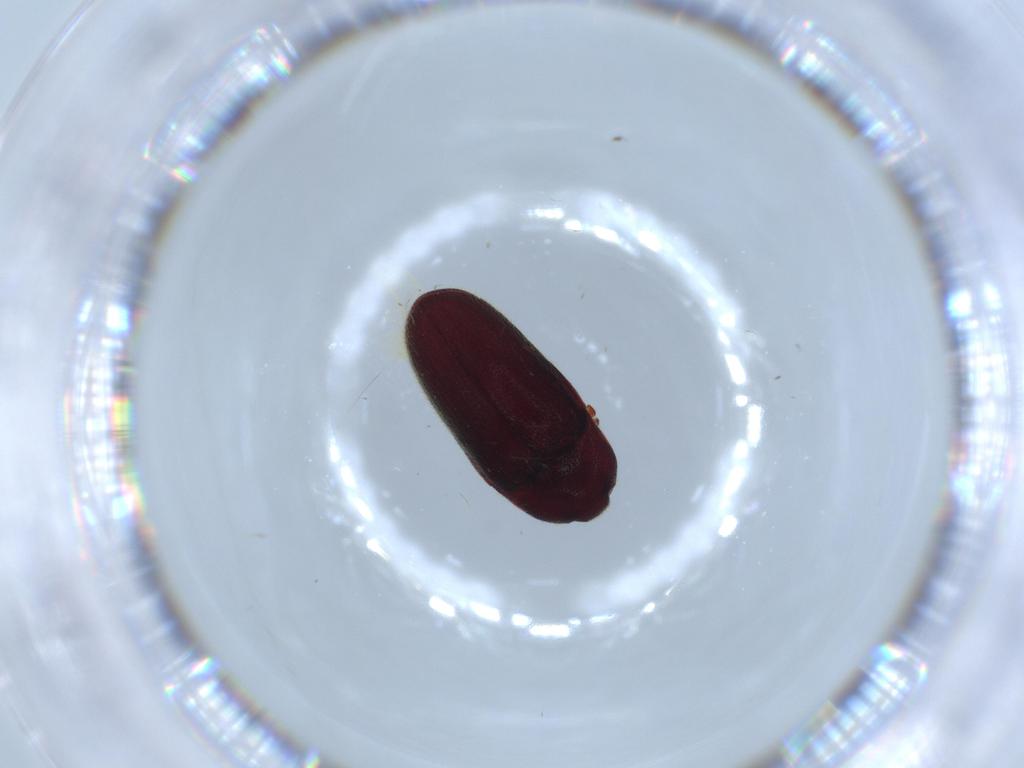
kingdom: Animalia
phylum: Arthropoda
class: Insecta
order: Coleoptera
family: Throscidae
